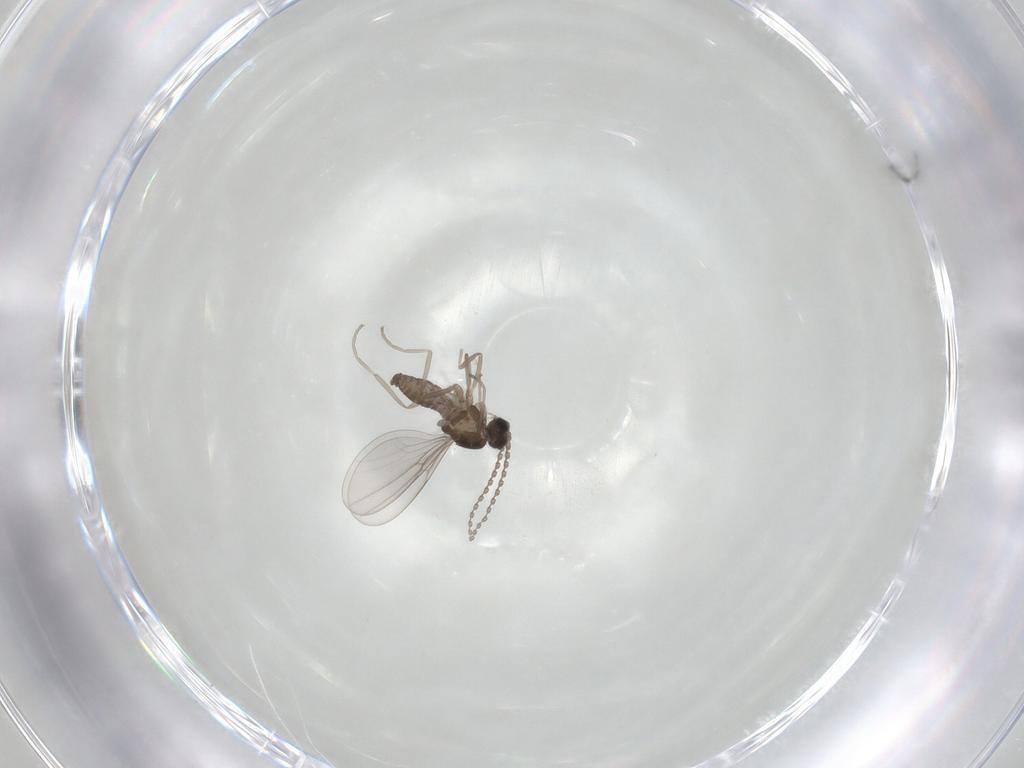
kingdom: Animalia
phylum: Arthropoda
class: Insecta
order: Diptera
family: Cecidomyiidae
